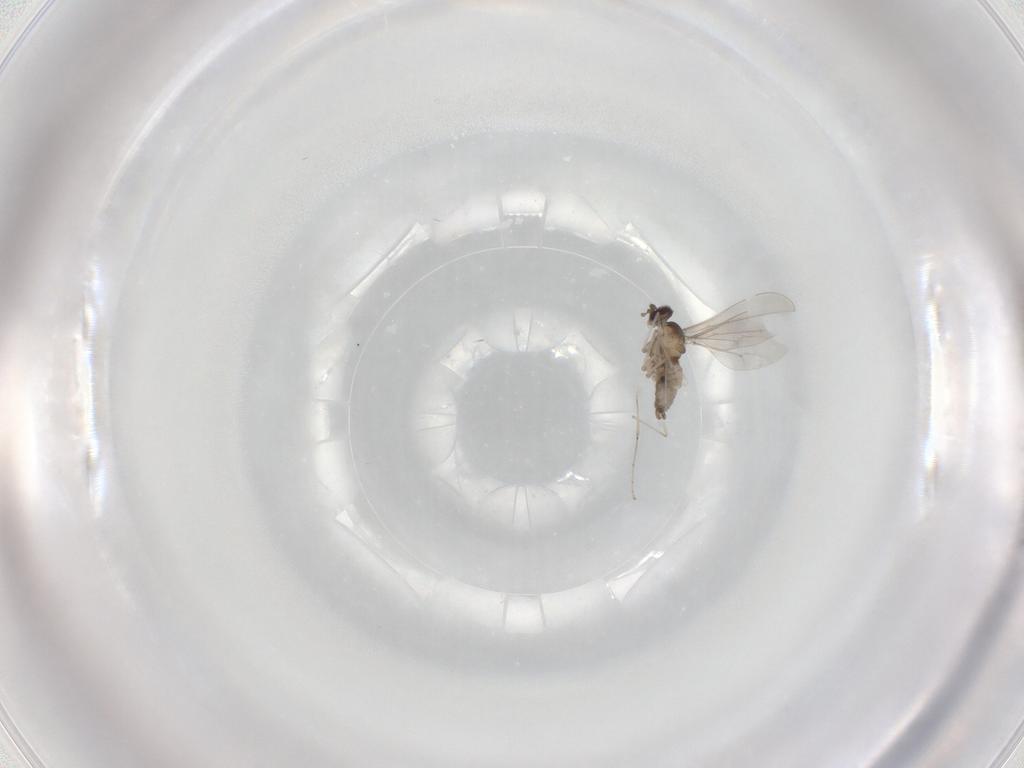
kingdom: Animalia
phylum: Arthropoda
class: Insecta
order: Diptera
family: Cecidomyiidae
